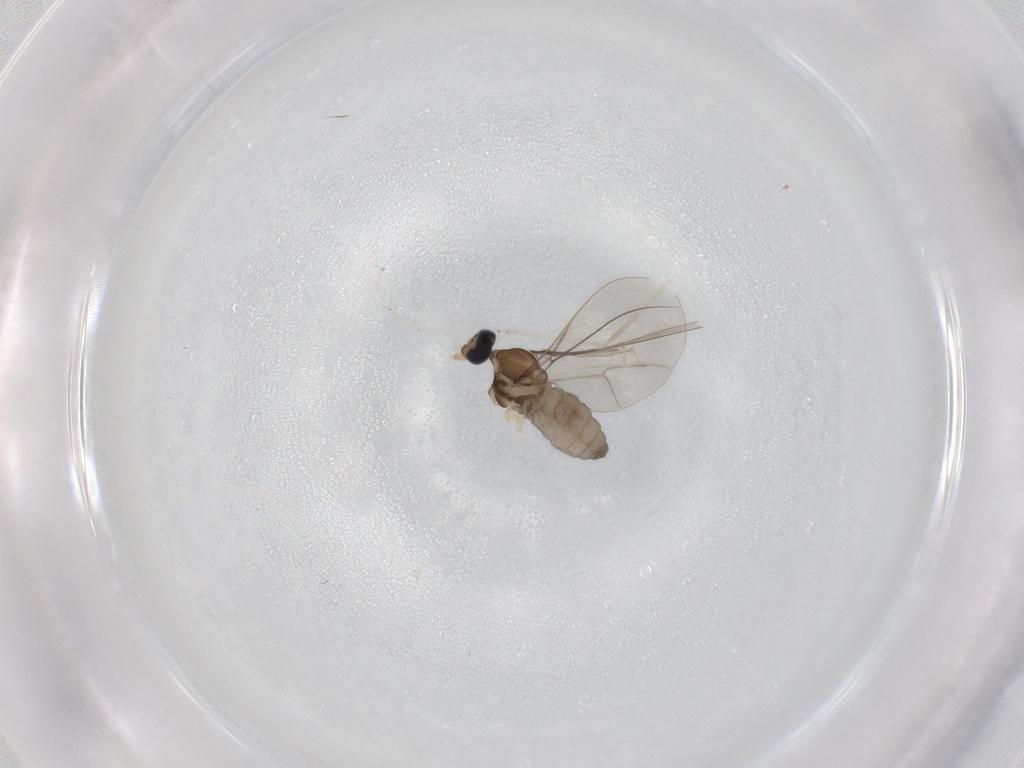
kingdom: Animalia
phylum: Arthropoda
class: Insecta
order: Diptera
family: Cecidomyiidae
